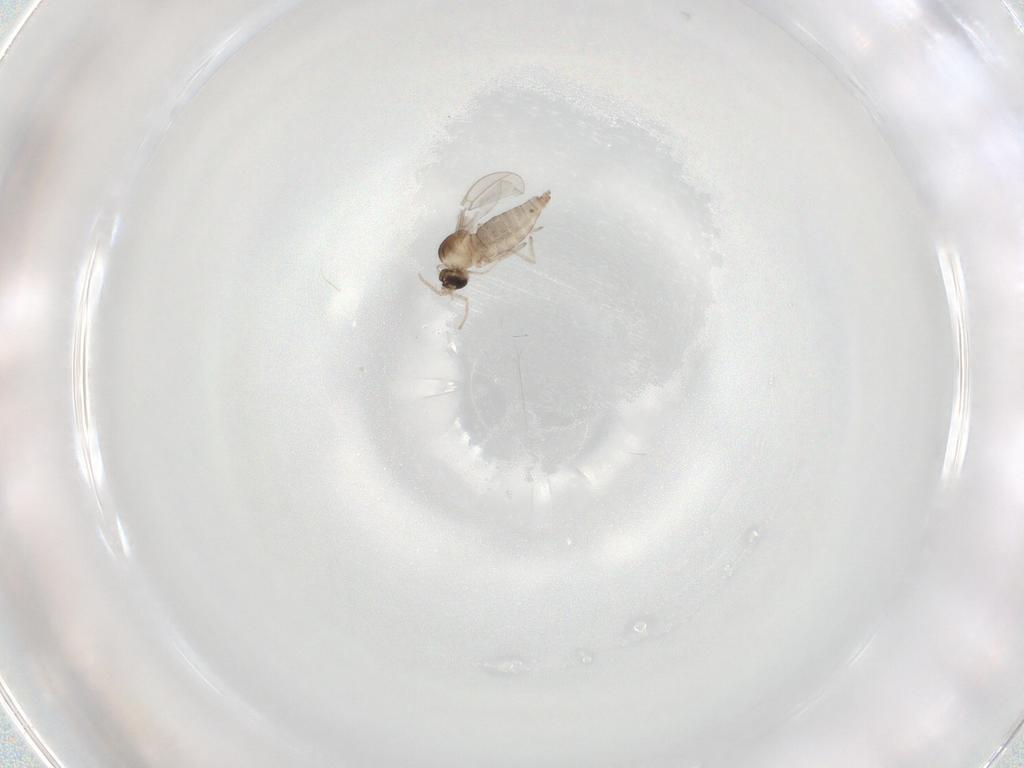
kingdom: Animalia
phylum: Arthropoda
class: Insecta
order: Diptera
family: Cecidomyiidae
